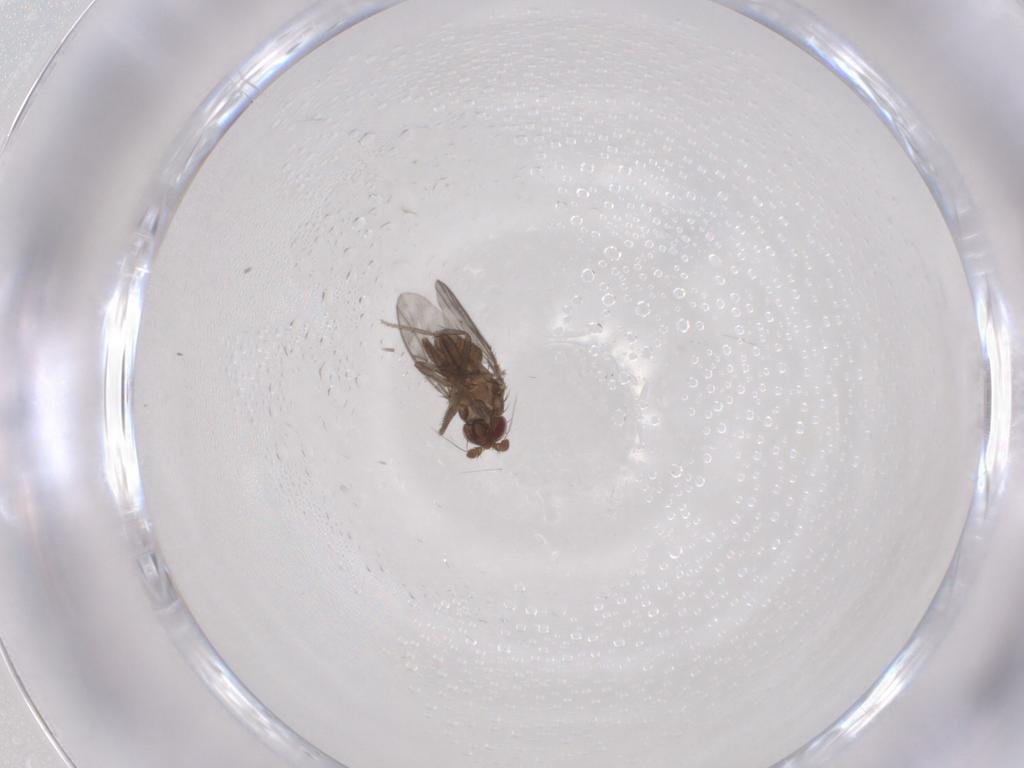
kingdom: Animalia
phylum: Arthropoda
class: Insecta
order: Diptera
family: Sphaeroceridae
